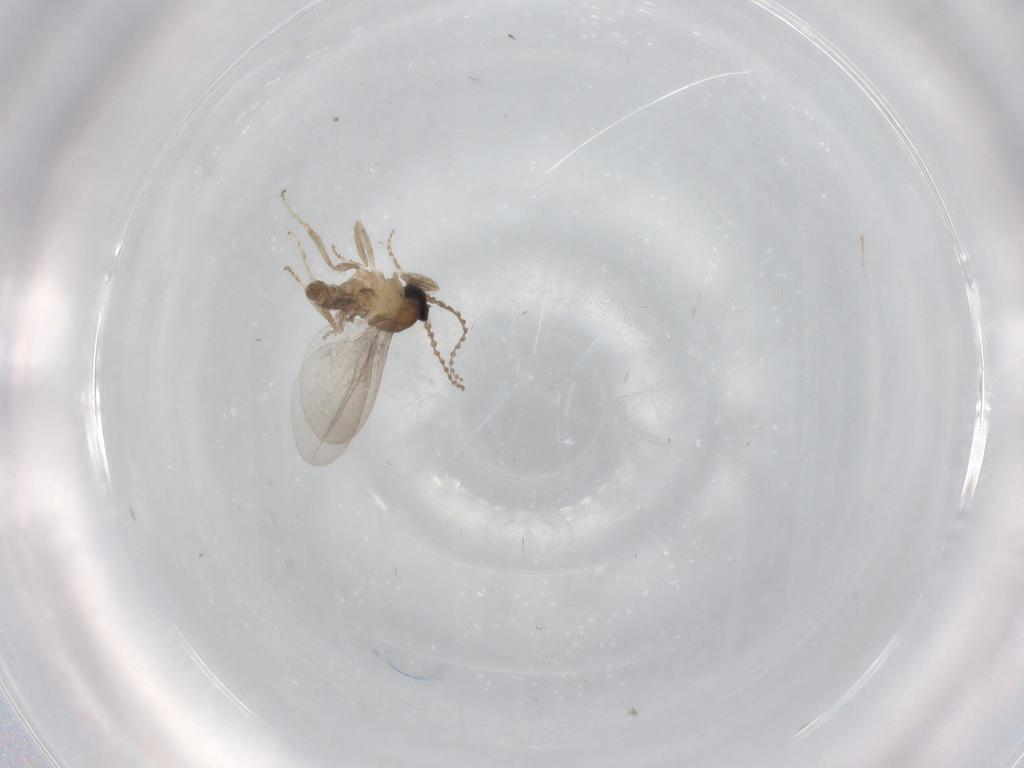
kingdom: Animalia
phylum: Arthropoda
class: Insecta
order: Diptera
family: Cecidomyiidae
